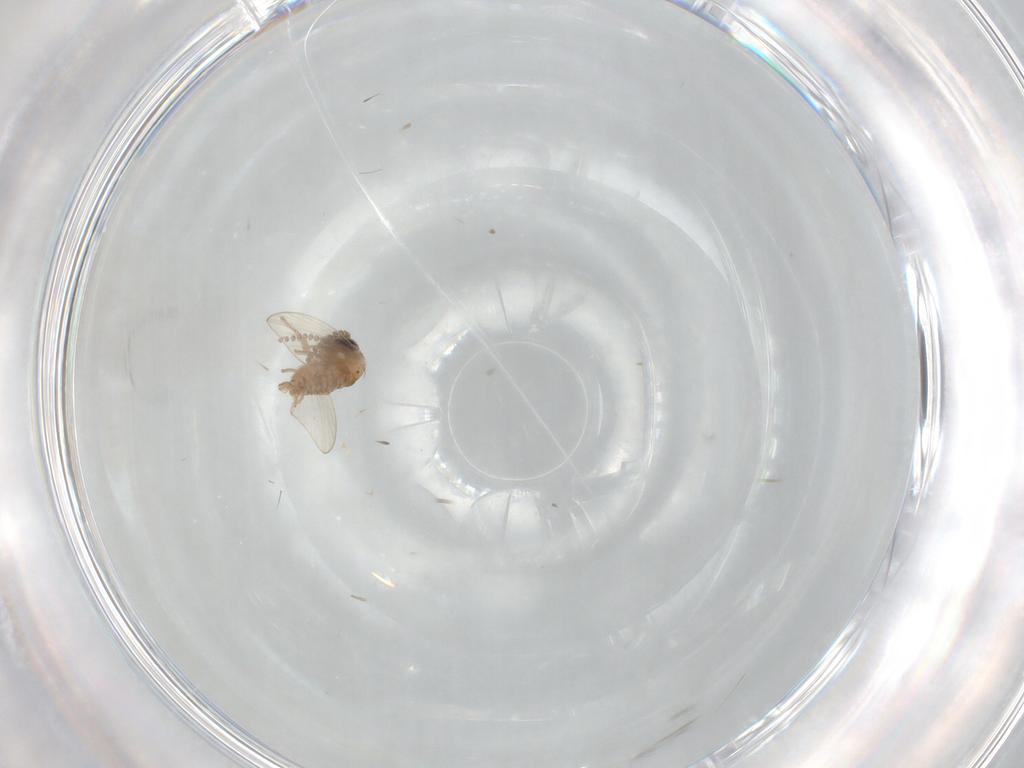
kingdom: Animalia
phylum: Arthropoda
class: Insecta
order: Diptera
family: Psychodidae
